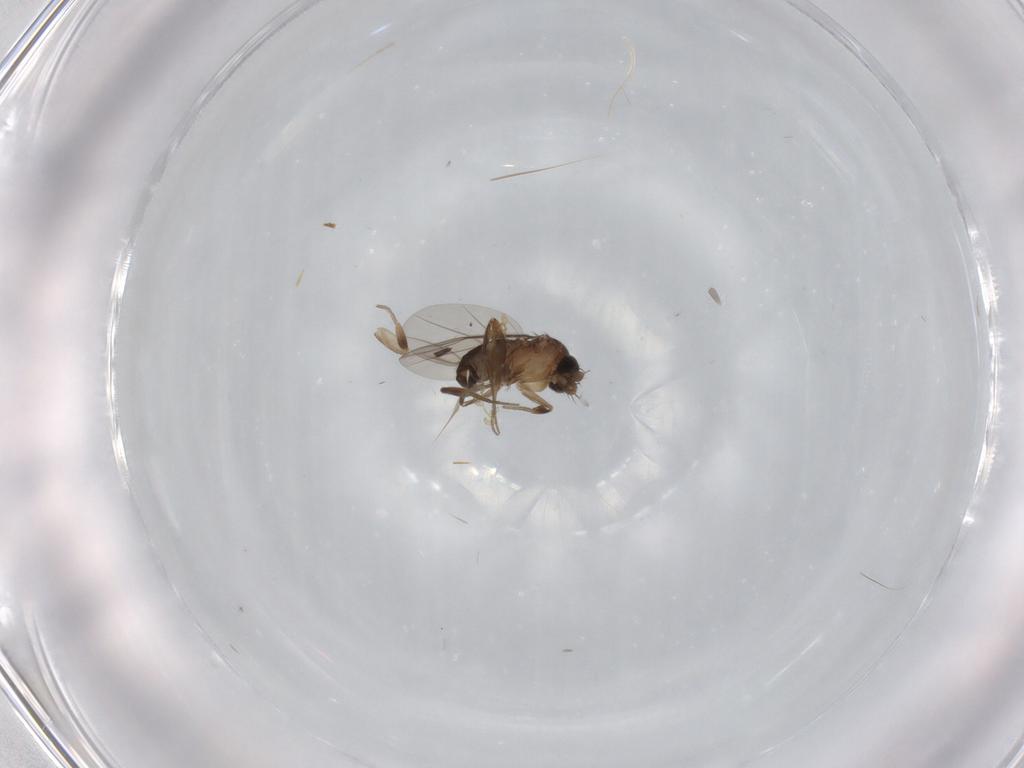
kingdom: Animalia
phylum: Arthropoda
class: Insecta
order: Diptera
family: Phoridae
